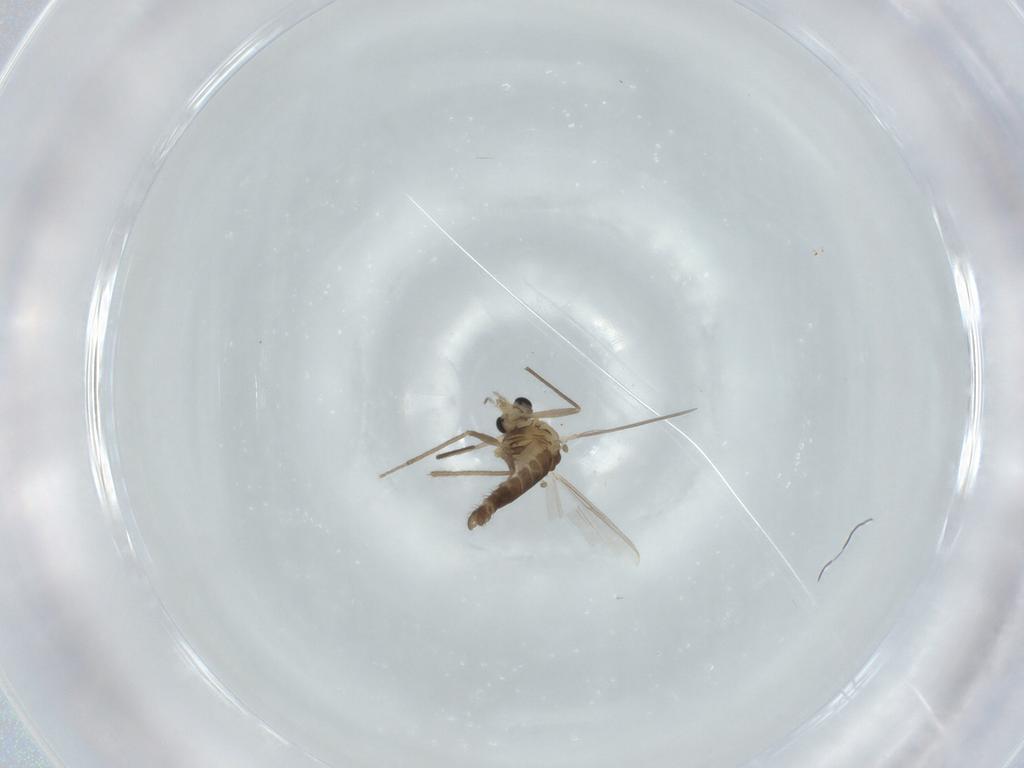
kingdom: Animalia
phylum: Arthropoda
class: Insecta
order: Diptera
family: Chironomidae
